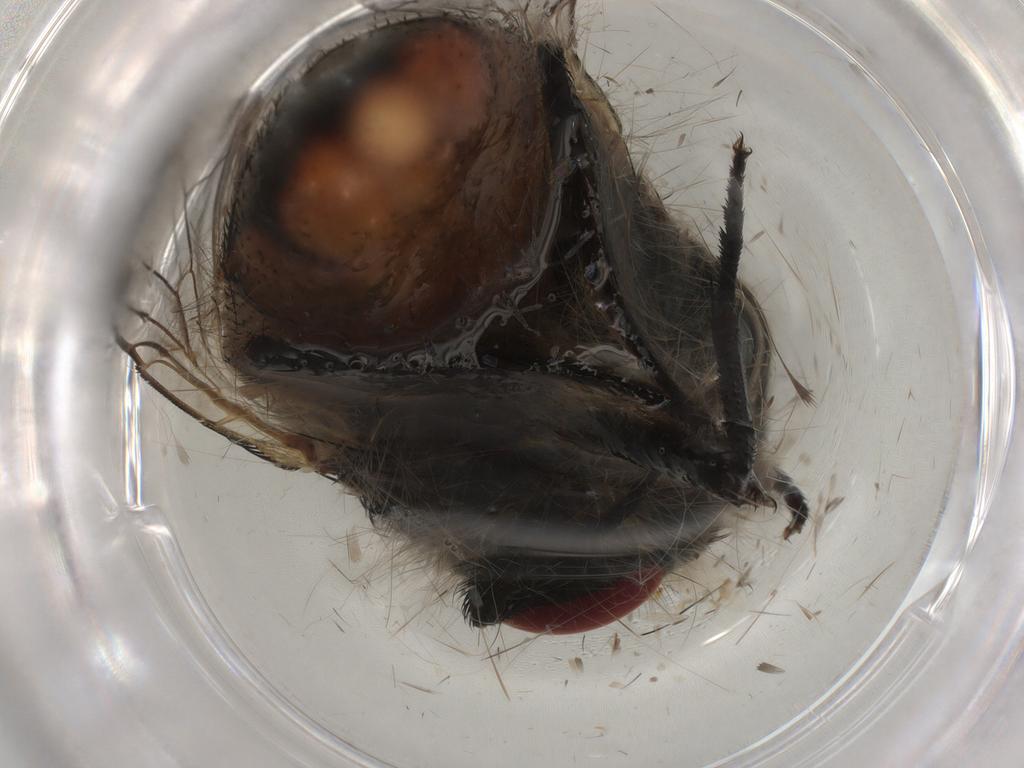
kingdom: Animalia
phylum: Arthropoda
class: Insecta
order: Diptera
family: Muscidae
